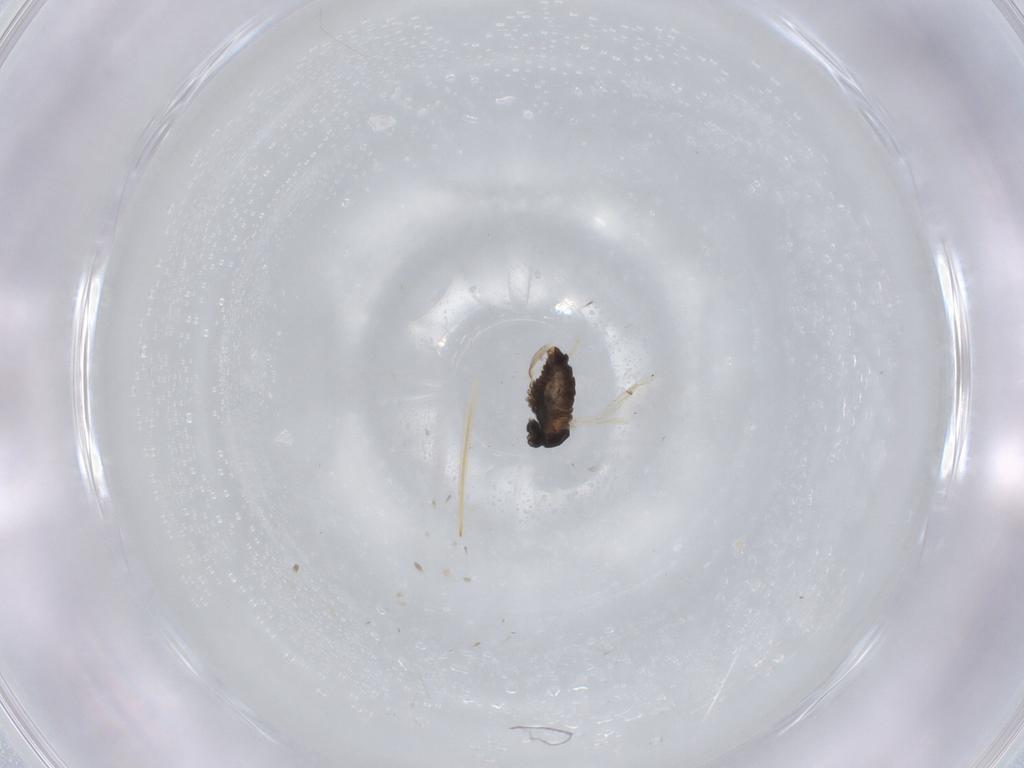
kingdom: Animalia
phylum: Arthropoda
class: Insecta
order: Diptera
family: Cecidomyiidae
